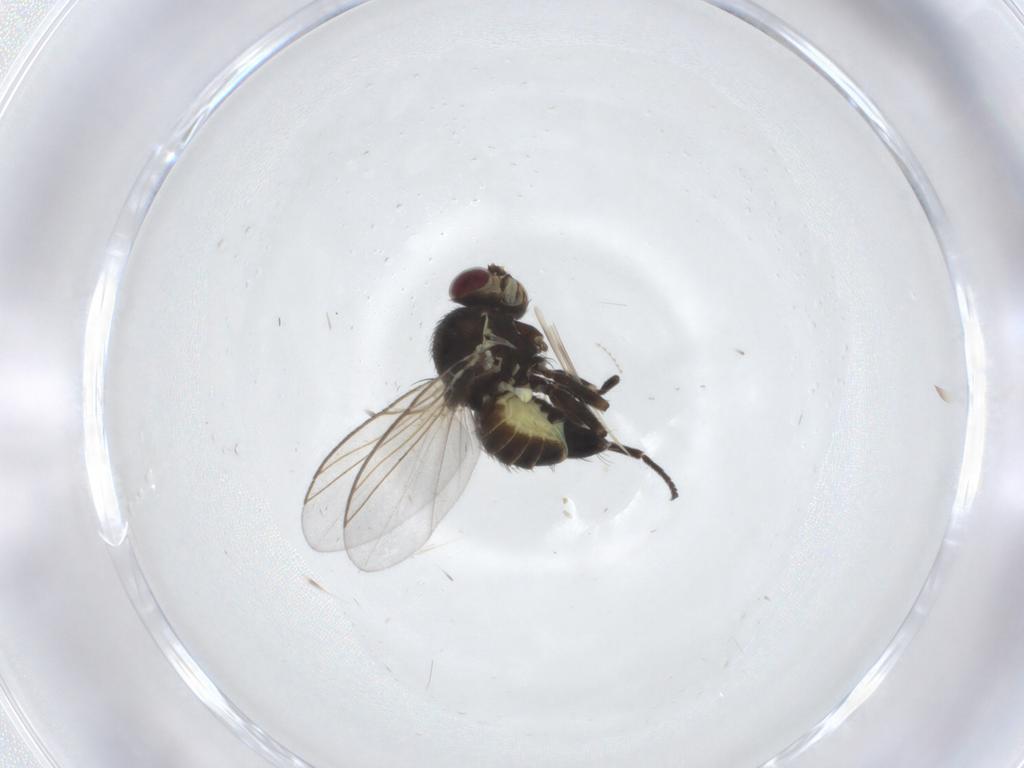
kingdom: Animalia
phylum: Arthropoda
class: Insecta
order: Diptera
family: Agromyzidae
